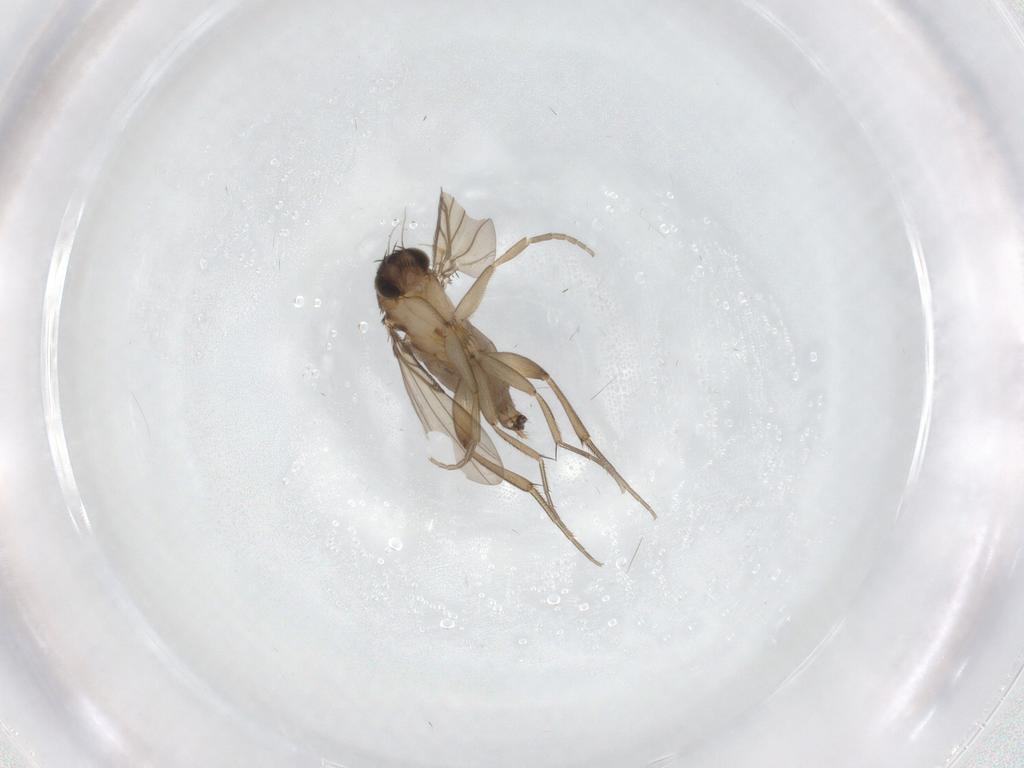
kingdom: Animalia
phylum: Arthropoda
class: Insecta
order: Diptera
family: Phoridae
